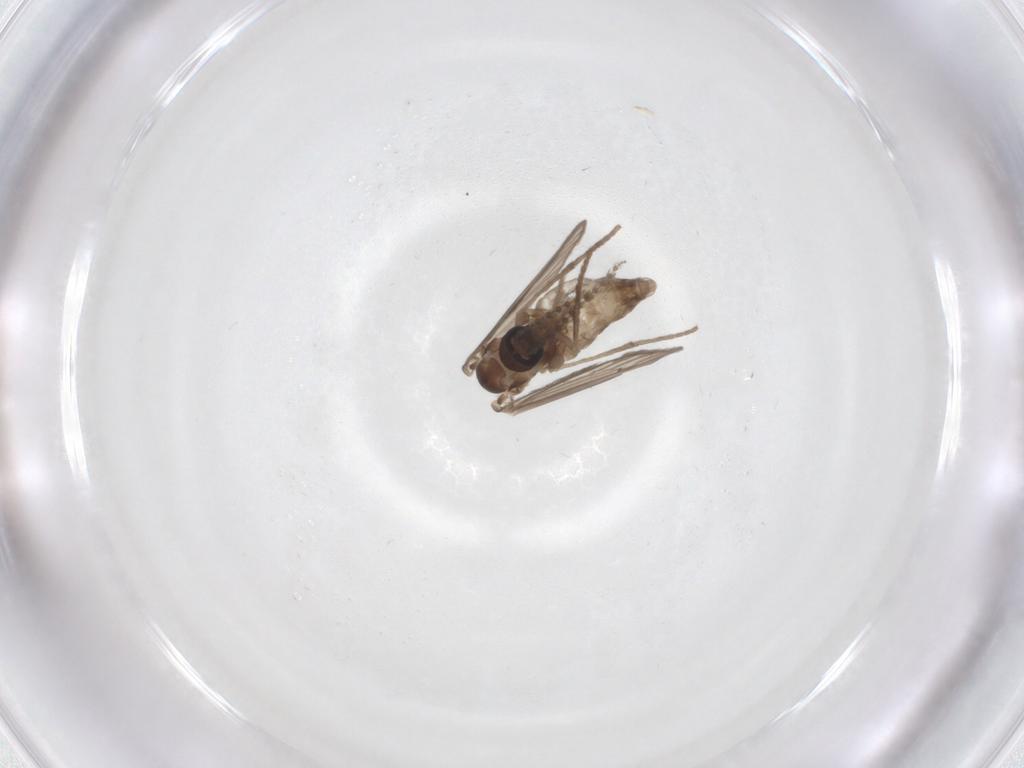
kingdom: Animalia
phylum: Arthropoda
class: Insecta
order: Diptera
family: Psychodidae
